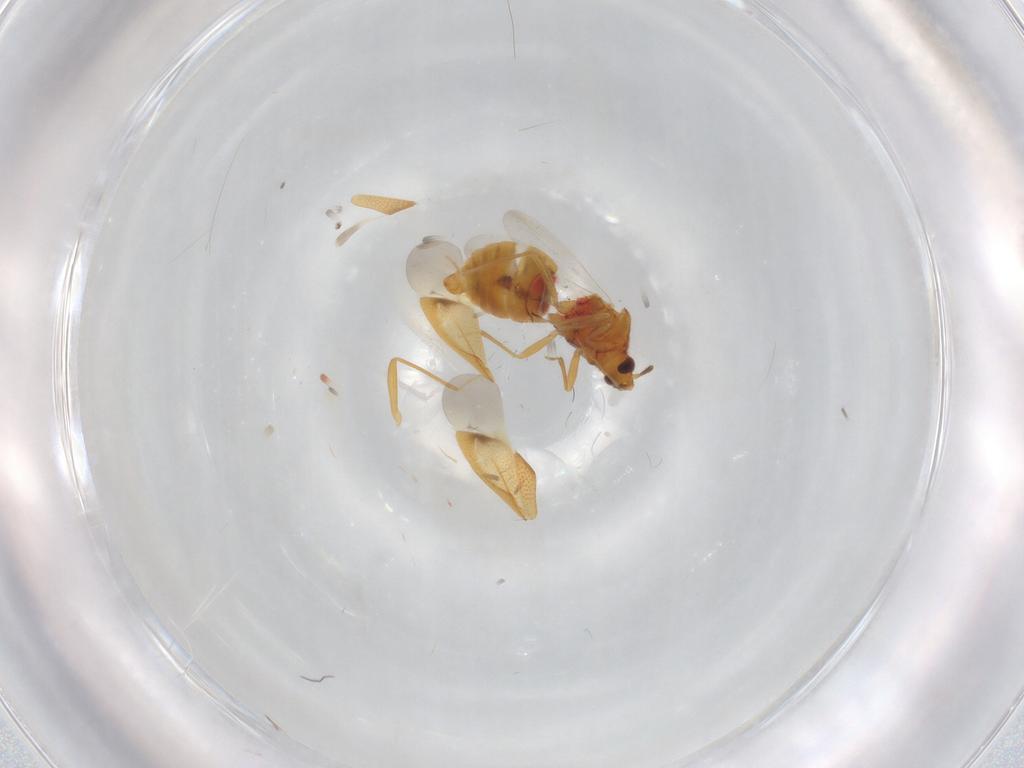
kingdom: Animalia
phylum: Arthropoda
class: Insecta
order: Hemiptera
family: Anthocoridae
